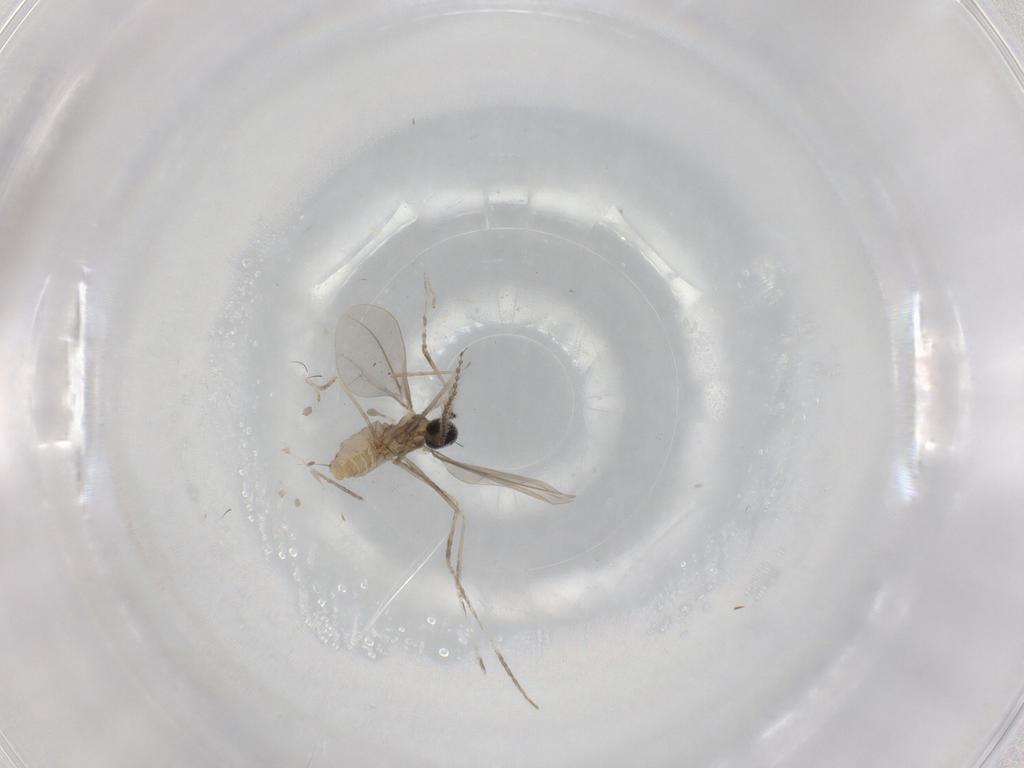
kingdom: Animalia
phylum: Arthropoda
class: Insecta
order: Diptera
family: Cecidomyiidae
